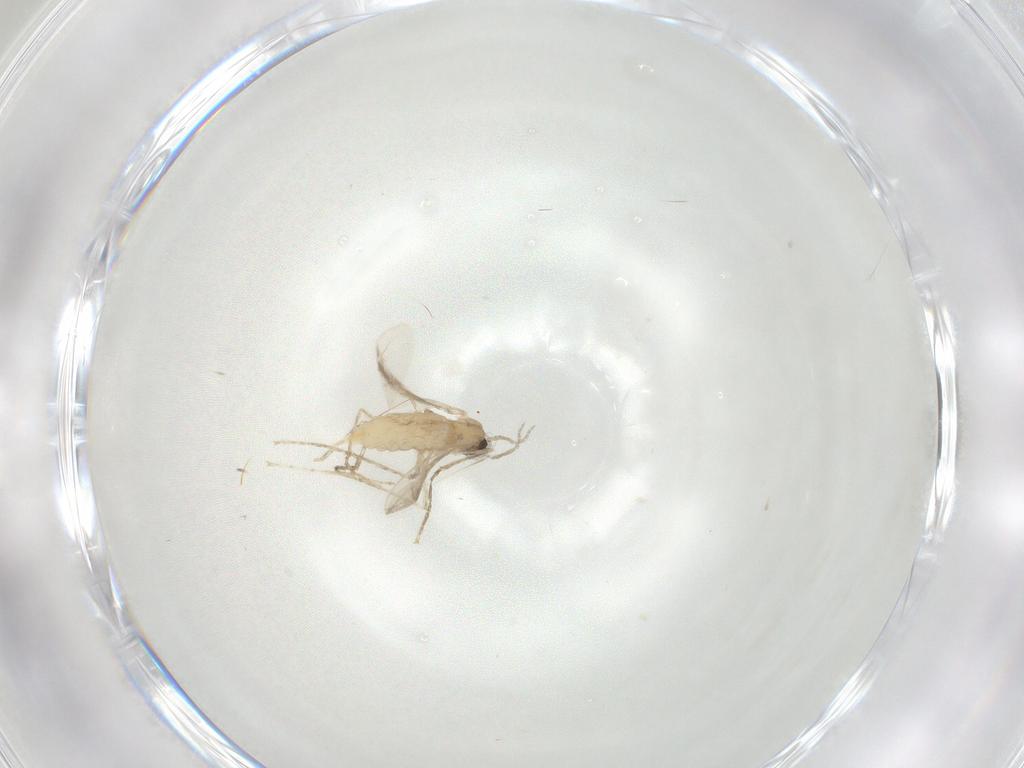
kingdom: Animalia
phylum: Arthropoda
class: Insecta
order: Diptera
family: Cecidomyiidae
